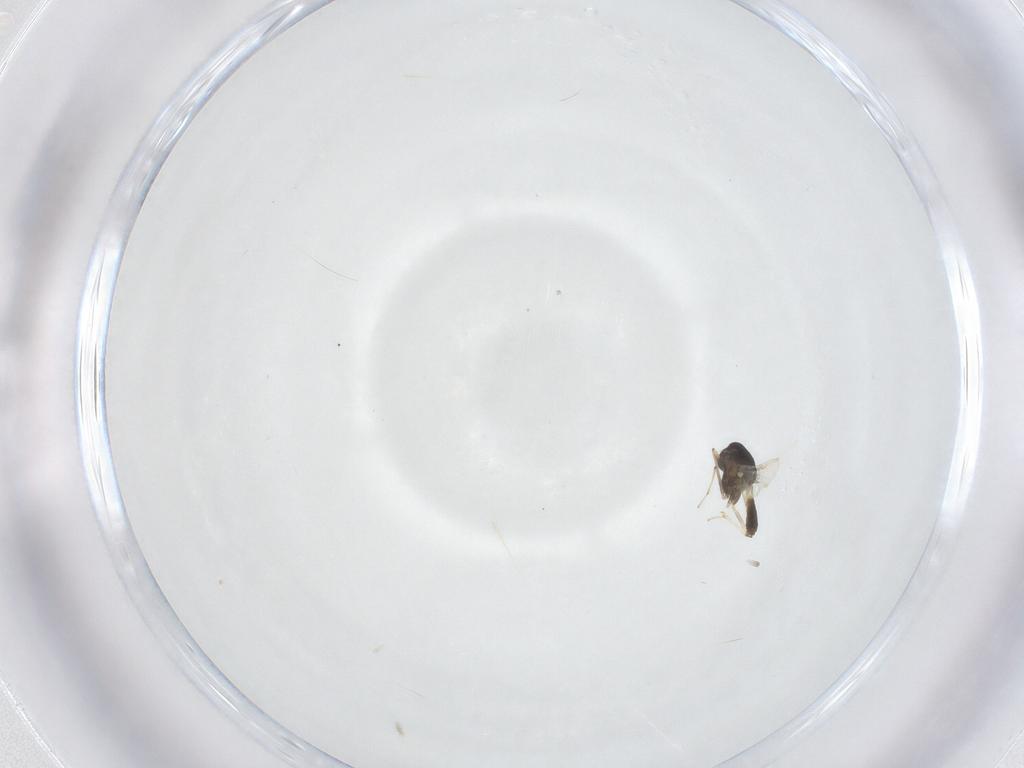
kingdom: Animalia
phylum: Arthropoda
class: Insecta
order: Diptera
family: Chironomidae
